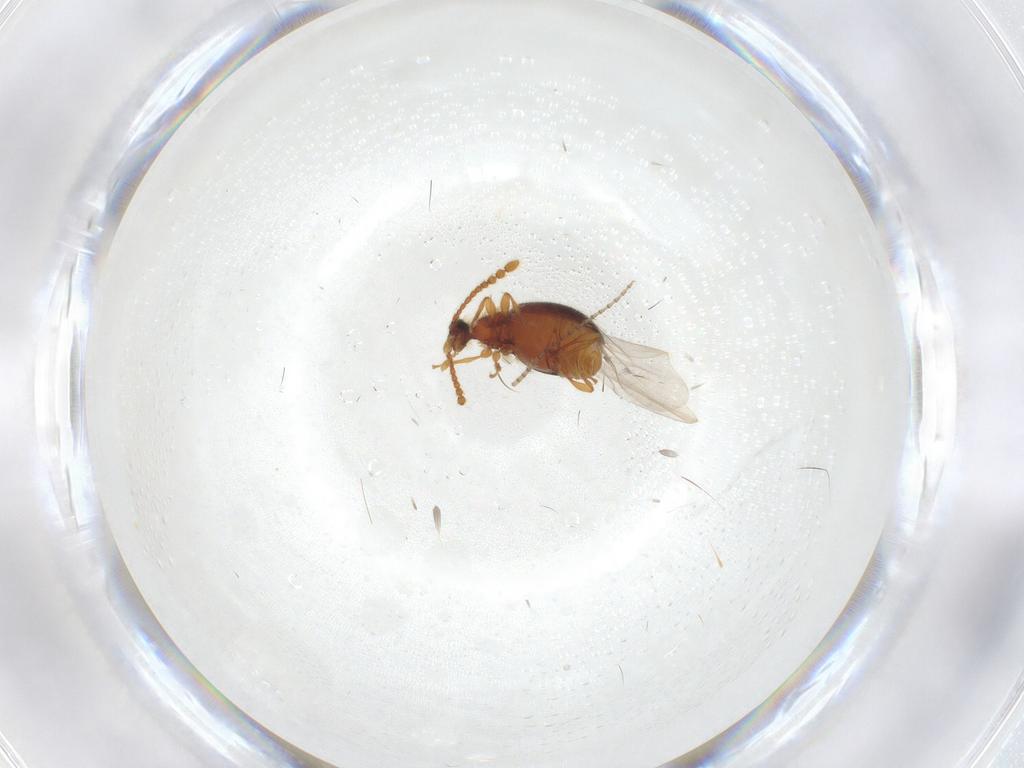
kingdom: Animalia
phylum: Arthropoda
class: Insecta
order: Coleoptera
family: Staphylinidae
